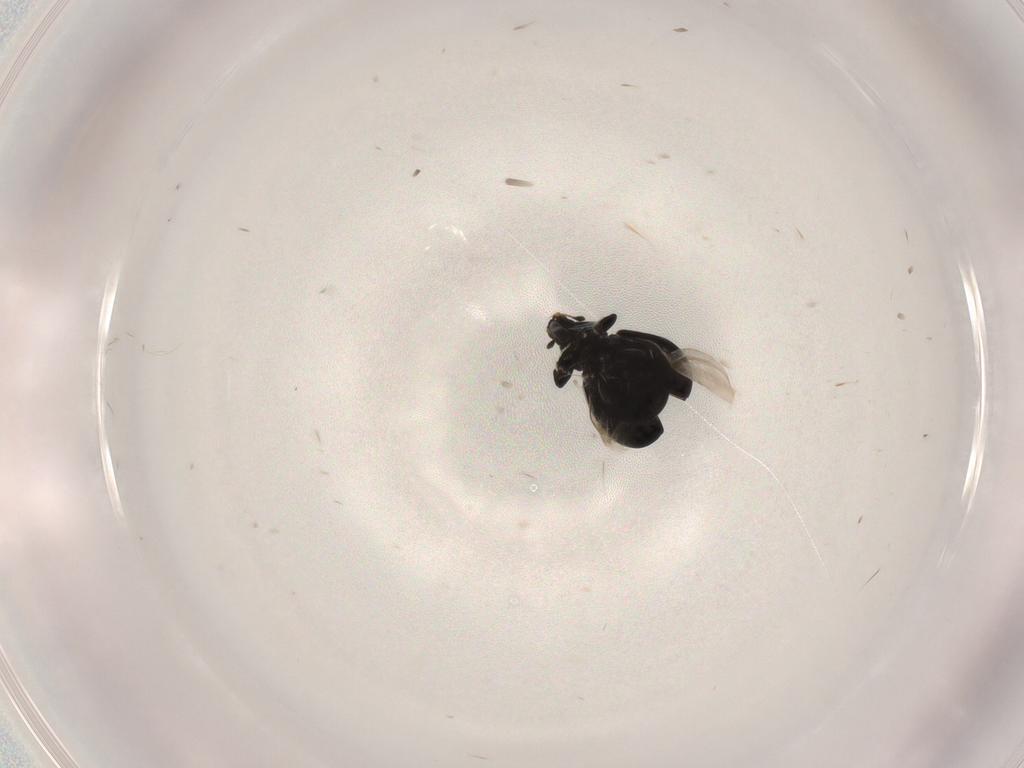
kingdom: Animalia
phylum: Arthropoda
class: Insecta
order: Coleoptera
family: Curculionidae
